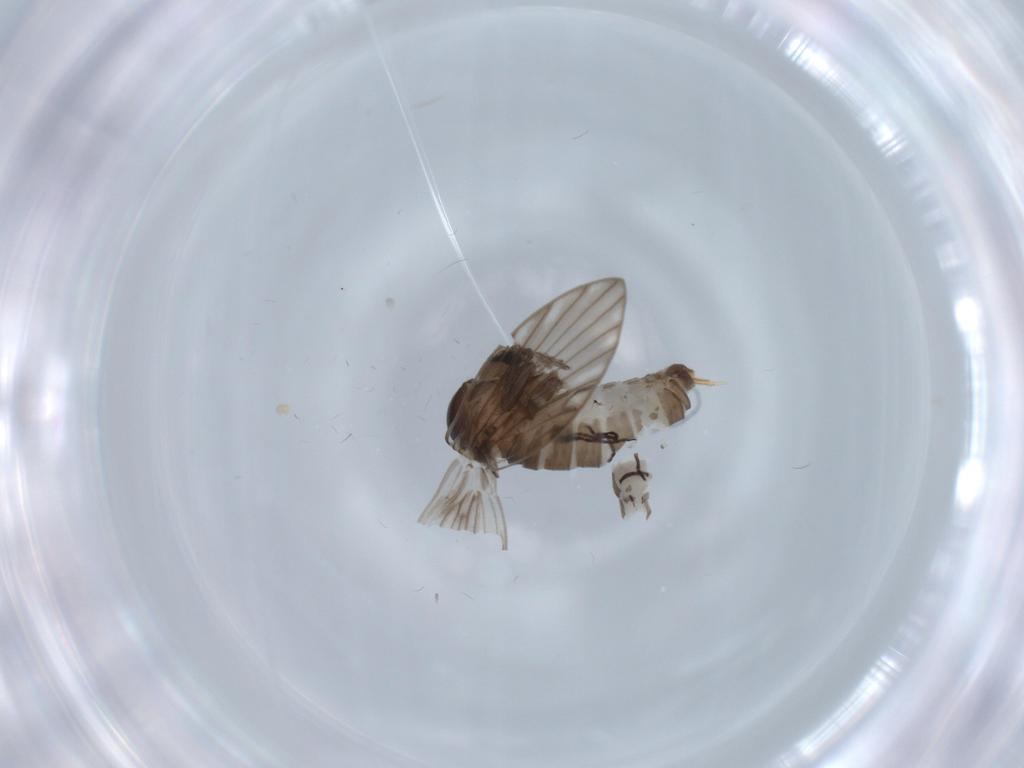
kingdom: Animalia
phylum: Arthropoda
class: Insecta
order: Diptera
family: Psychodidae
